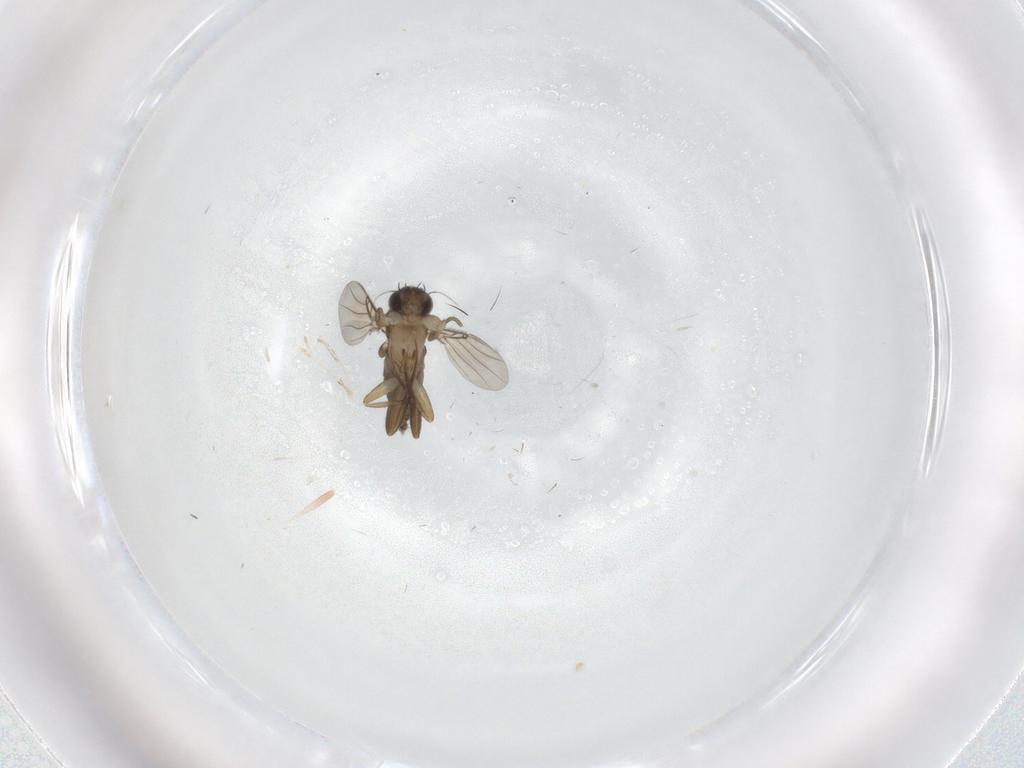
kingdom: Animalia
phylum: Arthropoda
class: Insecta
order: Diptera
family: Phoridae
